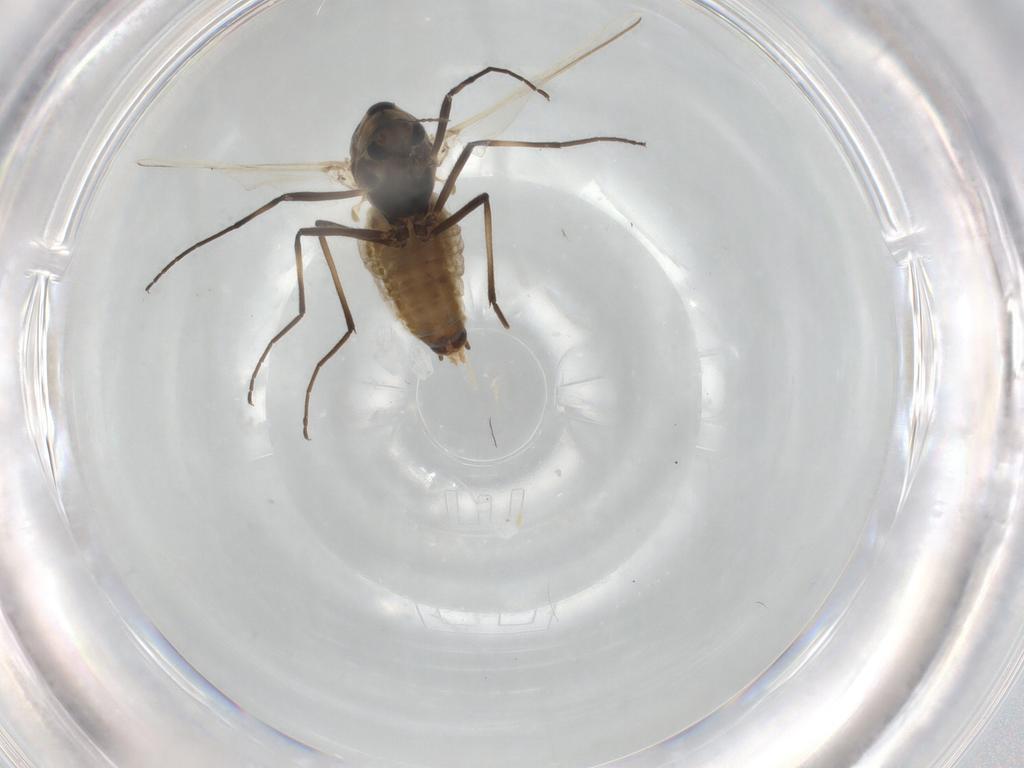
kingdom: Animalia
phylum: Arthropoda
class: Insecta
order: Diptera
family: Chironomidae
